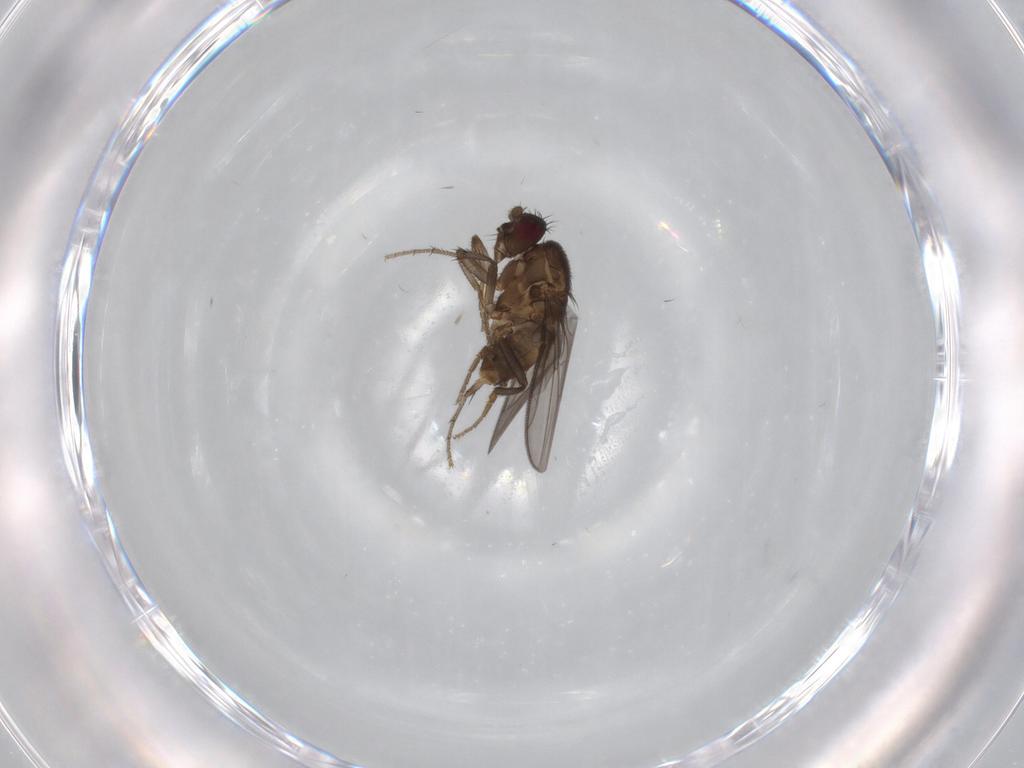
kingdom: Animalia
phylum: Arthropoda
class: Insecta
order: Diptera
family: Sphaeroceridae
